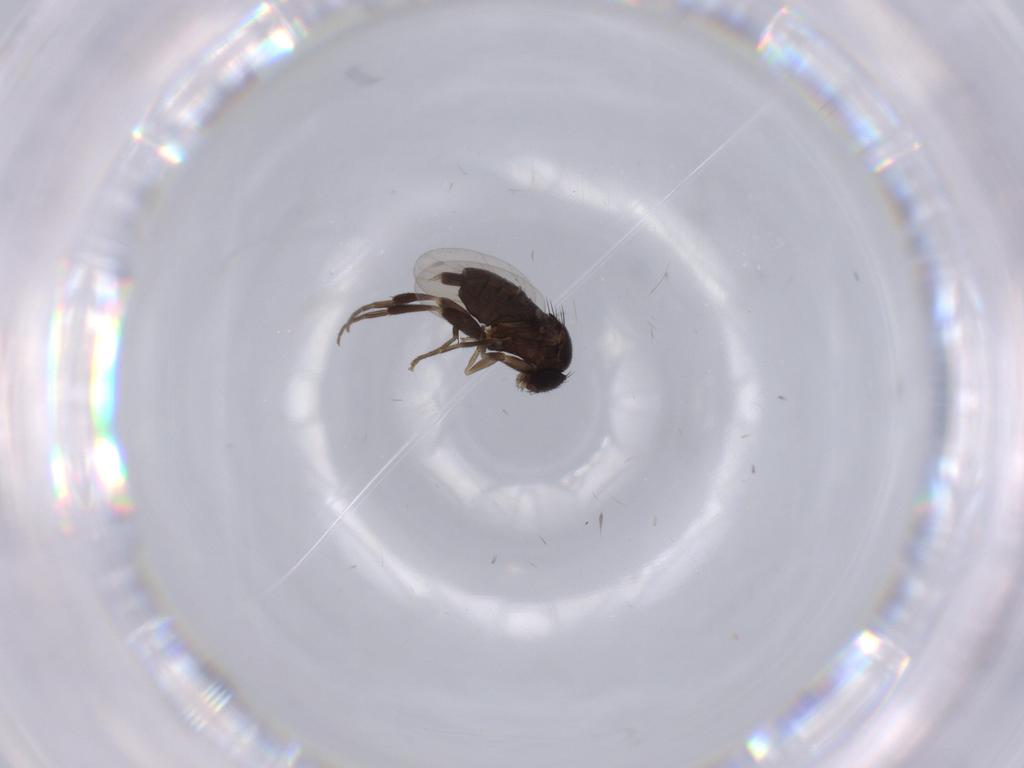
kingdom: Animalia
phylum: Arthropoda
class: Insecta
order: Diptera
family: Phoridae
